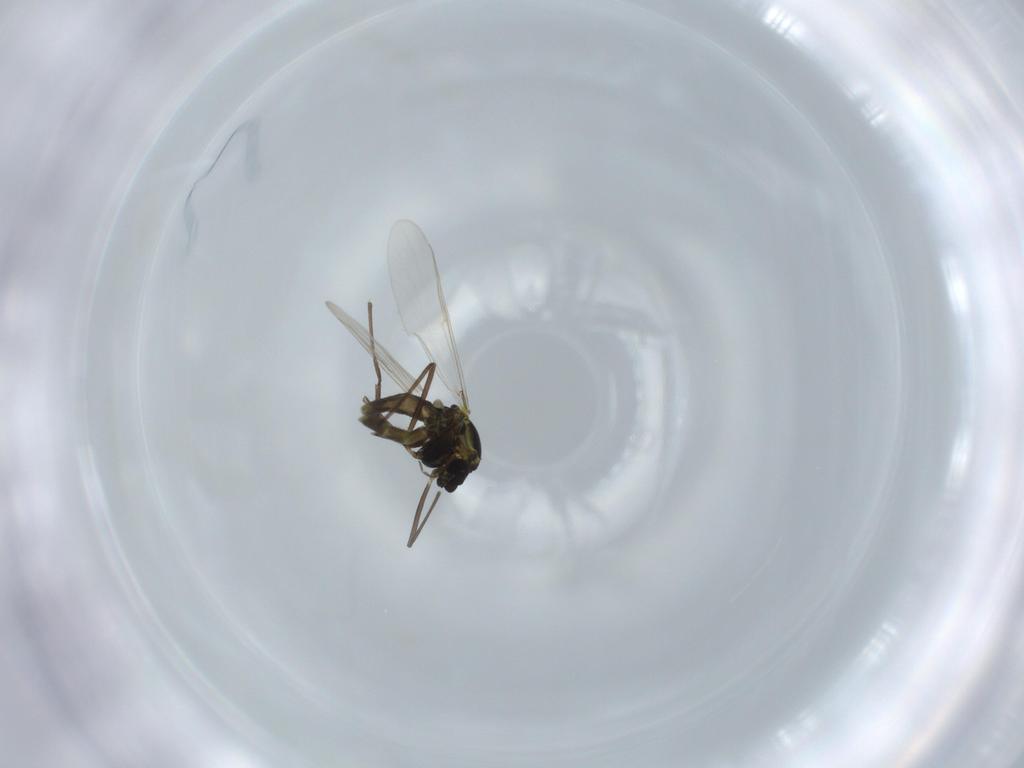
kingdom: Animalia
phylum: Arthropoda
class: Insecta
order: Diptera
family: Chironomidae
